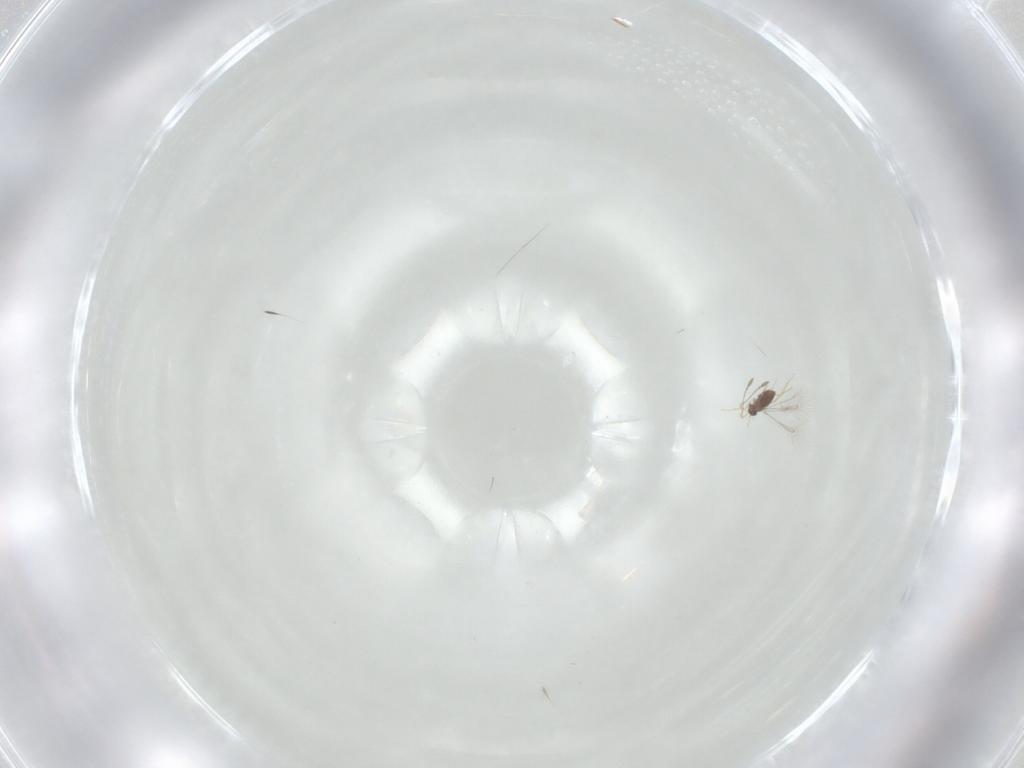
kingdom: Animalia
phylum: Arthropoda
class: Insecta
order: Hymenoptera
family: Mymaridae
